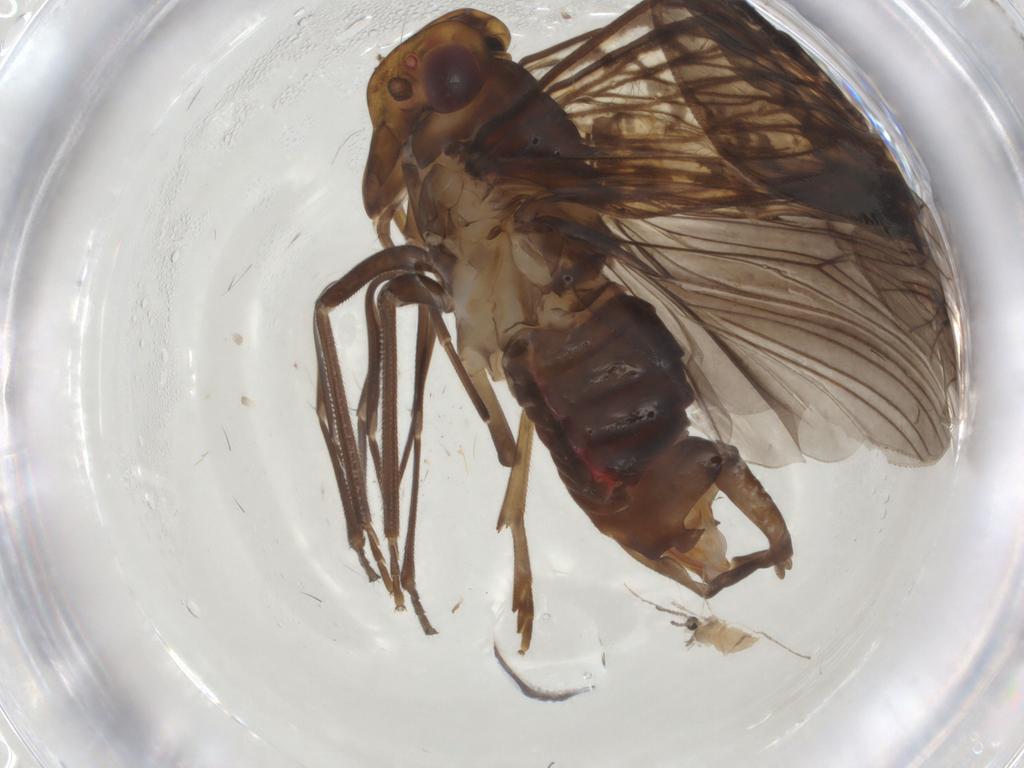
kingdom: Animalia
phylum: Arthropoda
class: Insecta
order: Hemiptera
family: Cixiidae
